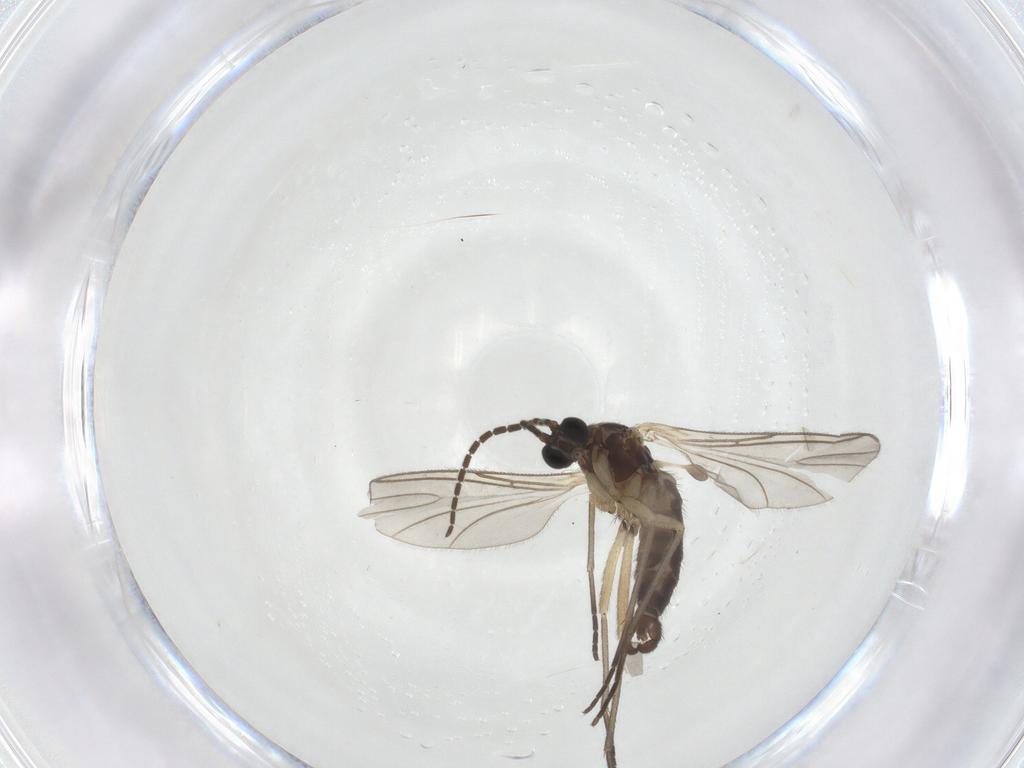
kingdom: Animalia
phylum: Arthropoda
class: Insecta
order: Diptera
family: Sciaridae
